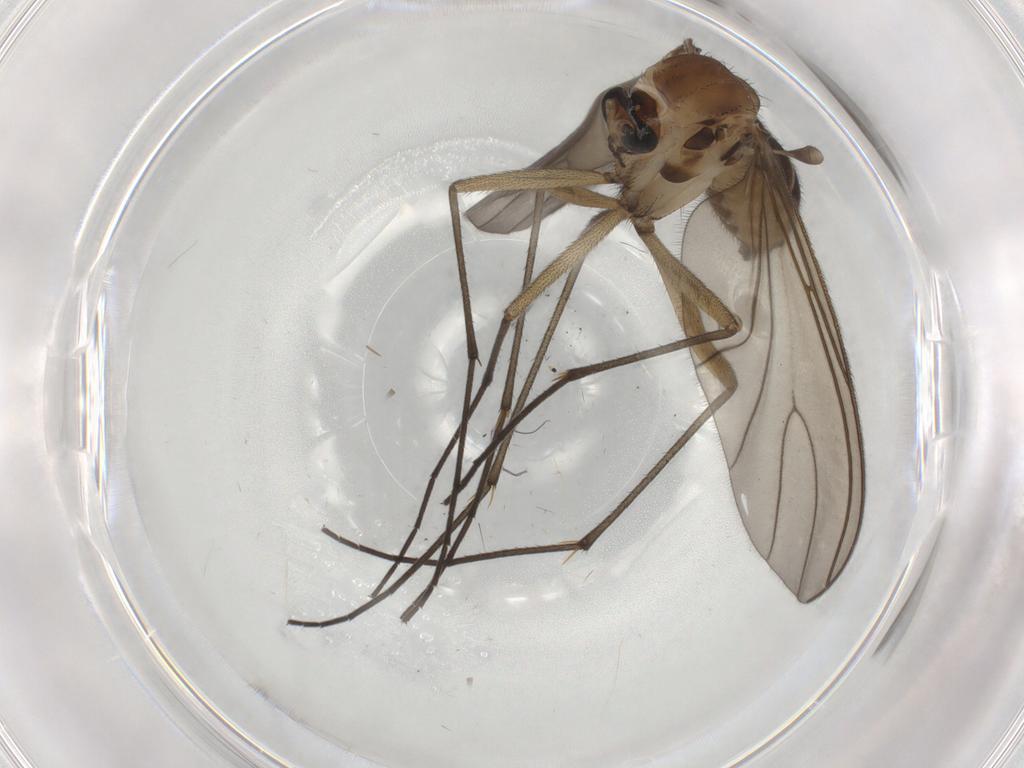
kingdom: Animalia
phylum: Arthropoda
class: Insecta
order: Diptera
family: Sciaridae
